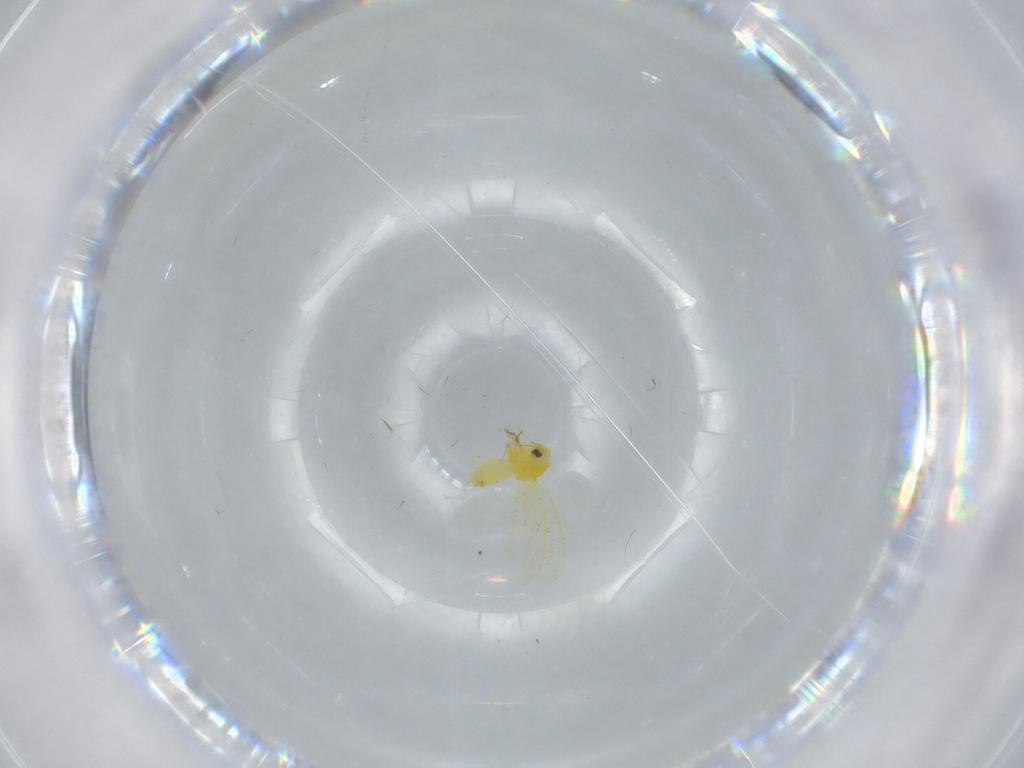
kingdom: Animalia
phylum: Arthropoda
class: Insecta
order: Hemiptera
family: Aleyrodidae
